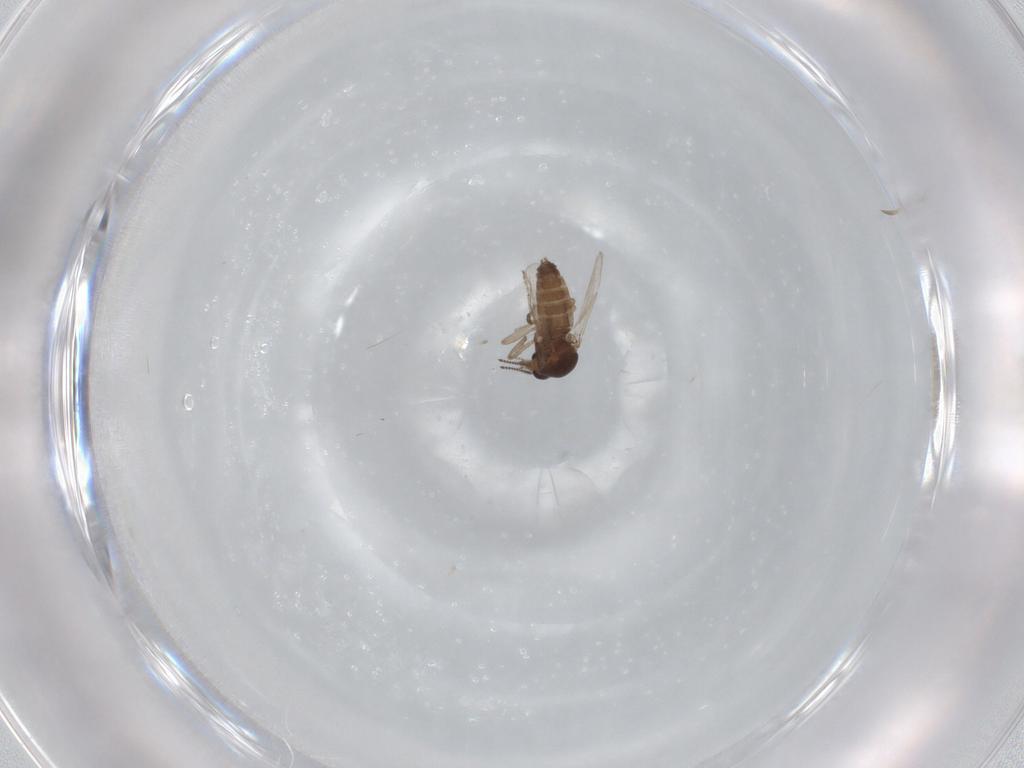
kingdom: Animalia
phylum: Arthropoda
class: Insecta
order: Diptera
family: Ceratopogonidae
